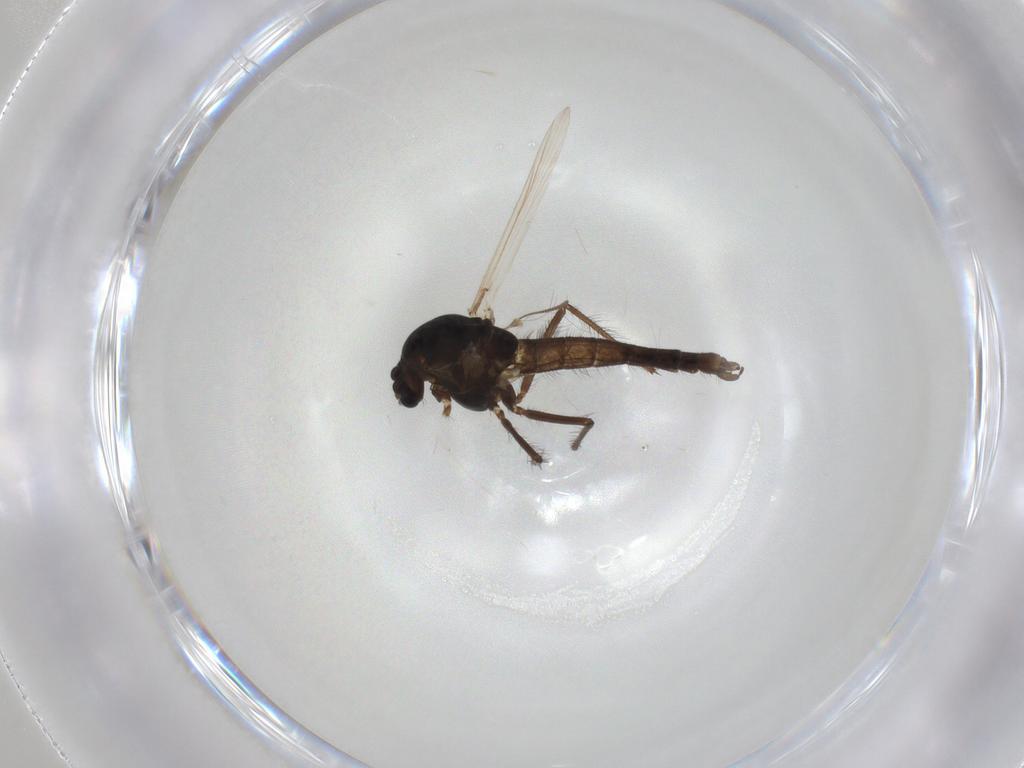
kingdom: Animalia
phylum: Arthropoda
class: Insecta
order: Diptera
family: Chironomidae
